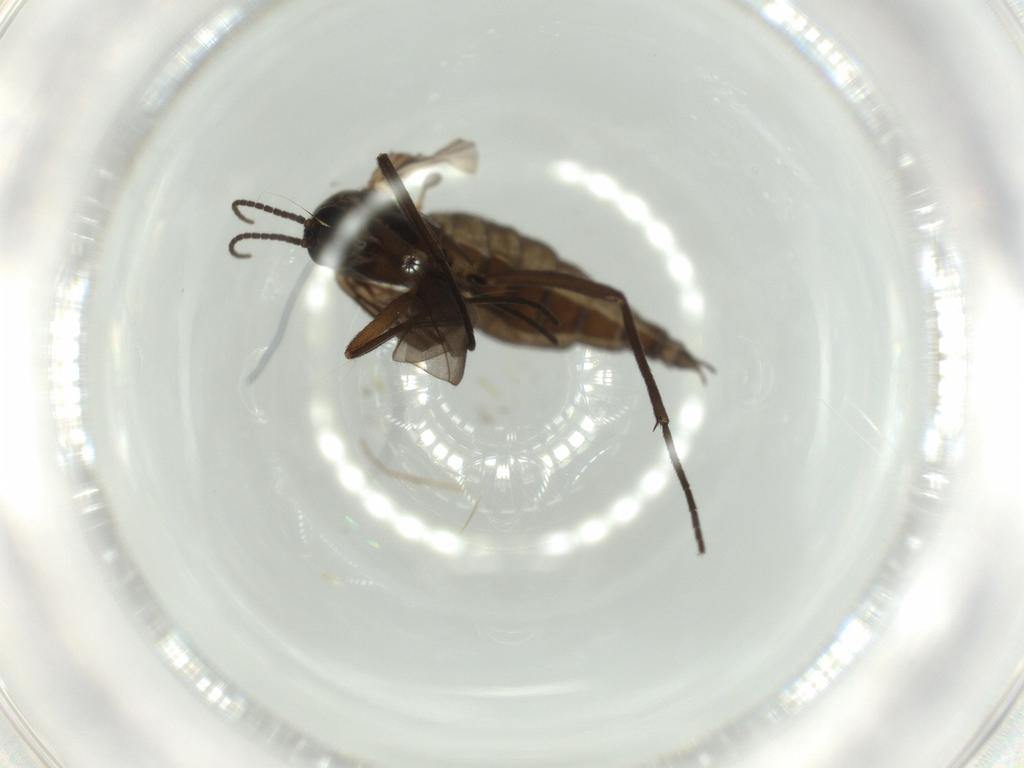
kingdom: Animalia
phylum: Arthropoda
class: Insecta
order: Diptera
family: Sciaridae
